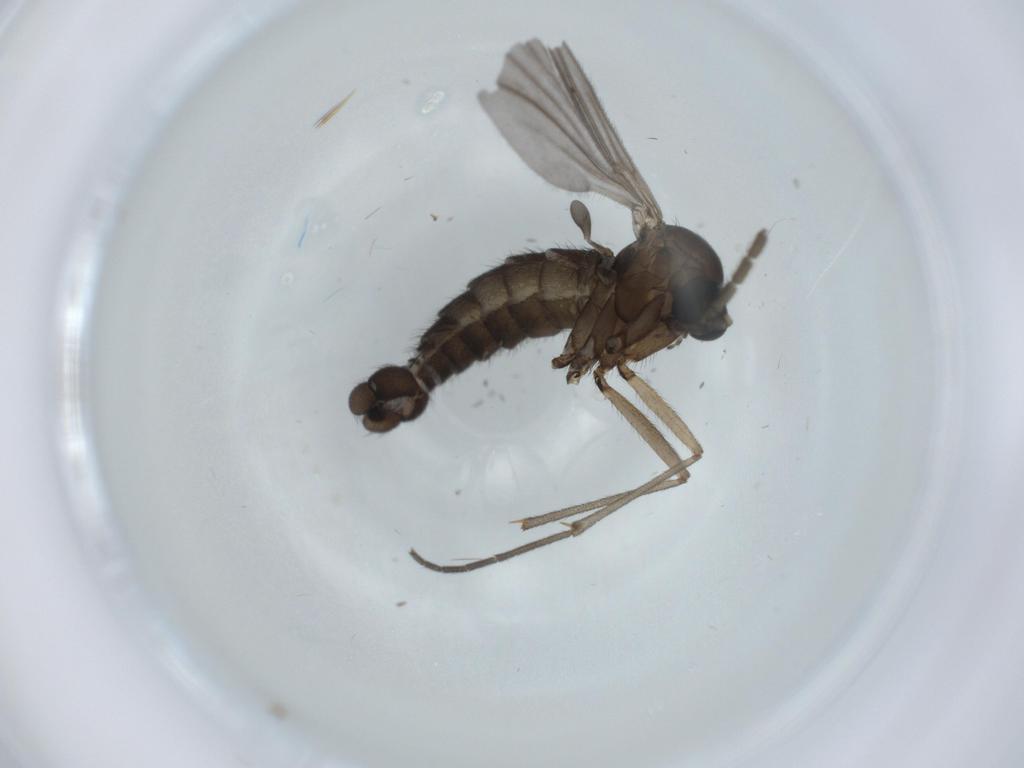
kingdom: Animalia
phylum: Arthropoda
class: Insecta
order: Diptera
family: Sciaridae
